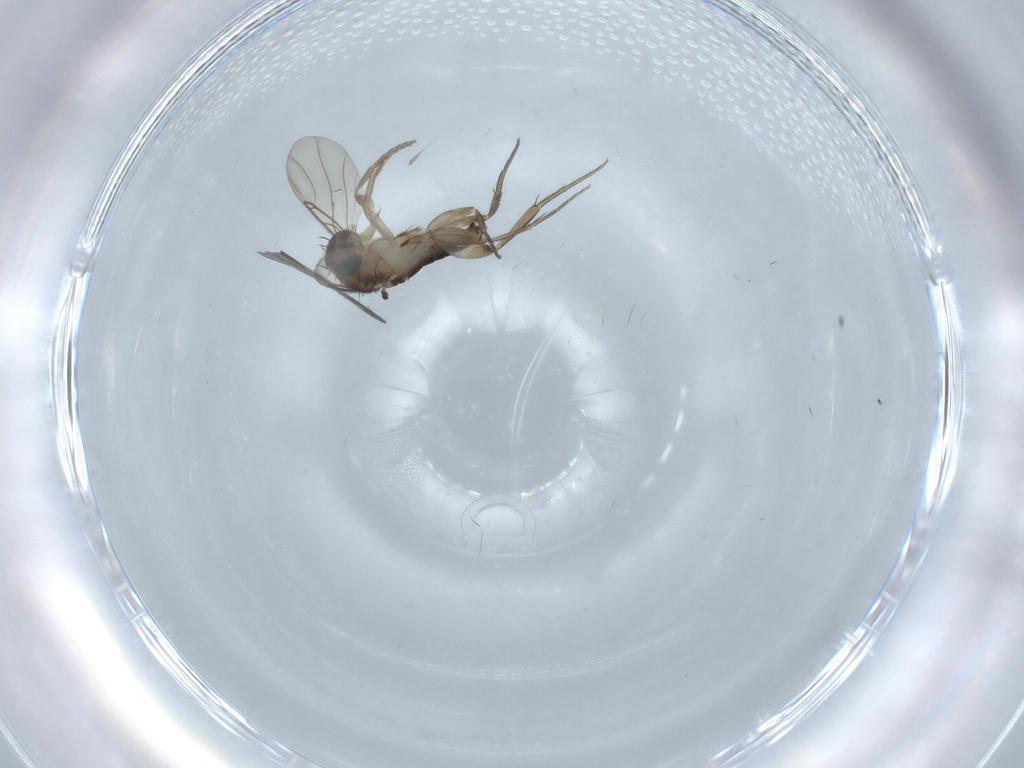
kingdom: Animalia
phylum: Arthropoda
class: Insecta
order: Diptera
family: Phoridae
